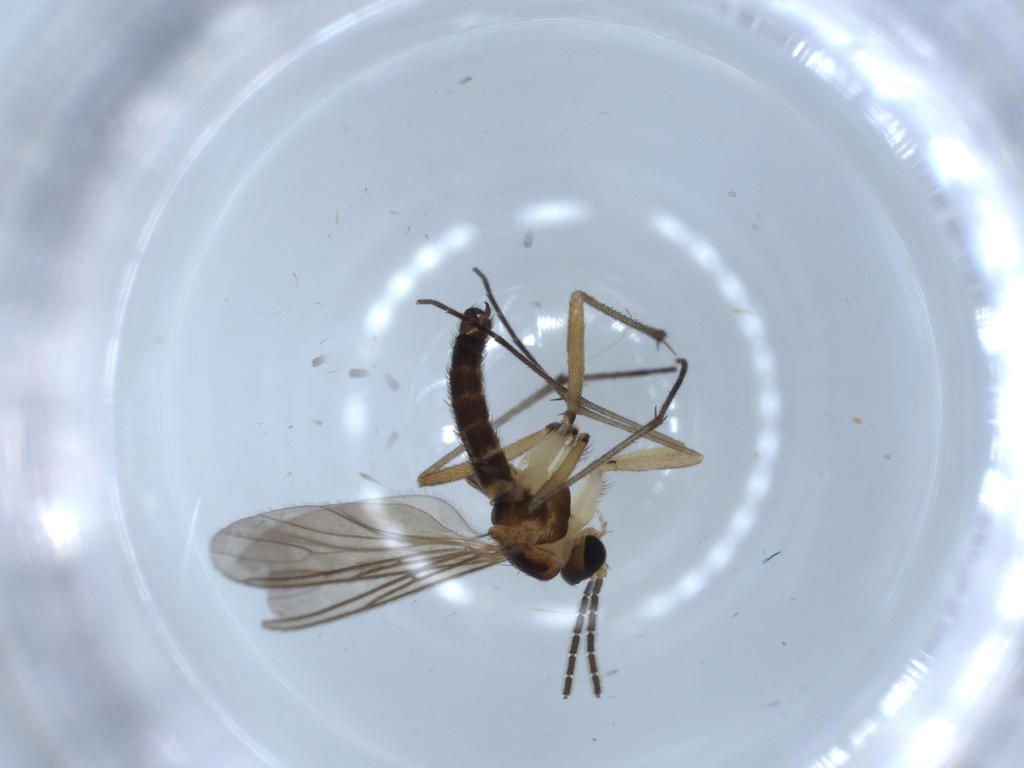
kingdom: Animalia
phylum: Arthropoda
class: Insecta
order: Diptera
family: Sciaridae
